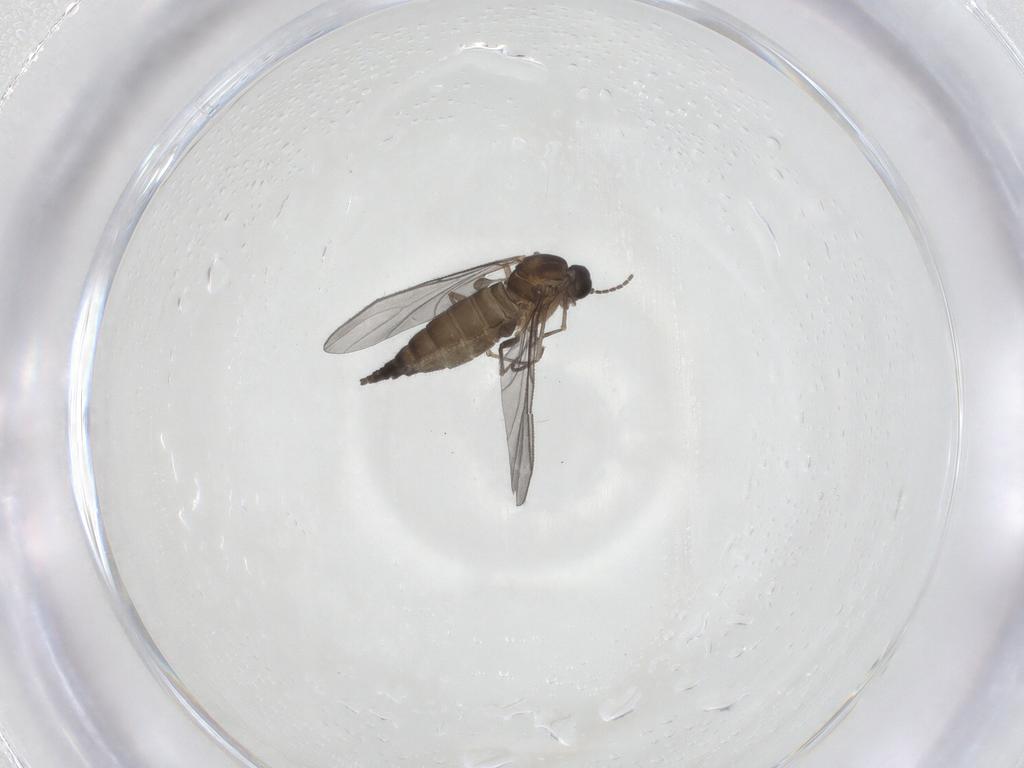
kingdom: Animalia
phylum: Arthropoda
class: Insecta
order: Diptera
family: Sciaridae
